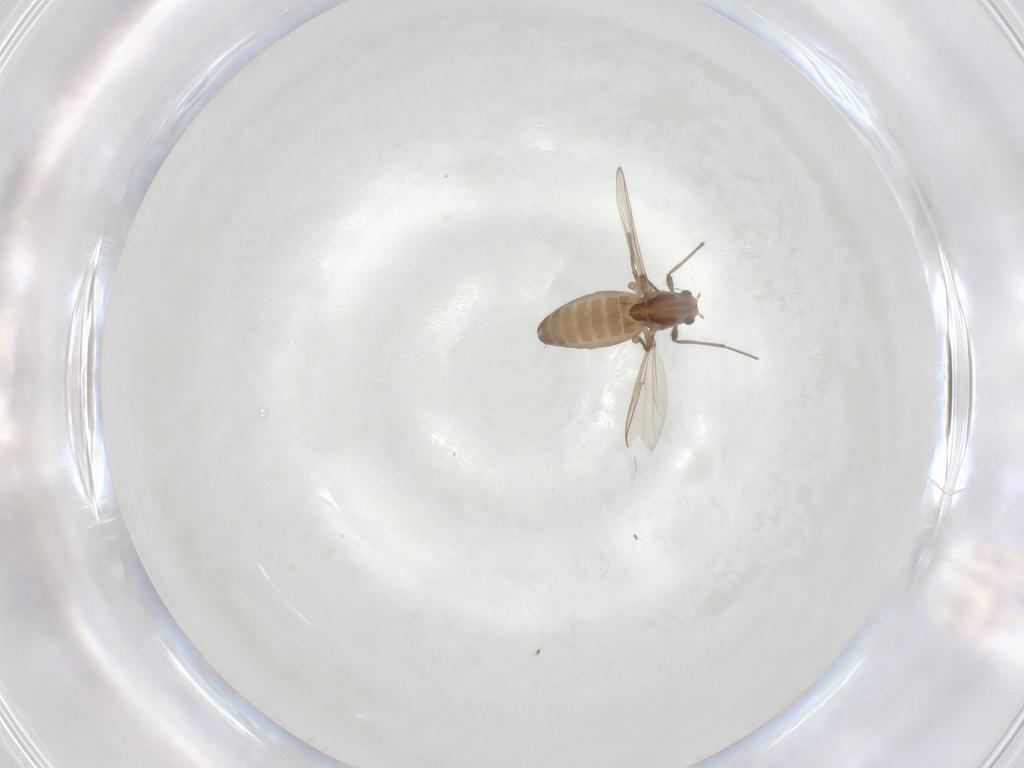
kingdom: Animalia
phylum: Arthropoda
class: Insecta
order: Diptera
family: Chironomidae
